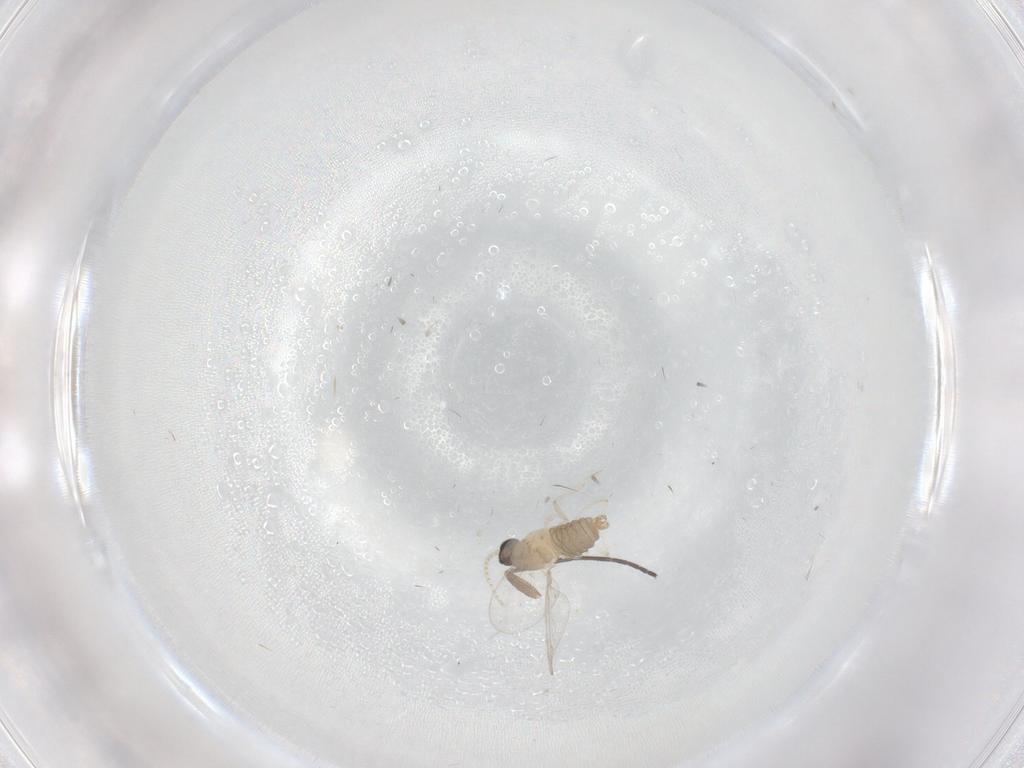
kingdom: Animalia
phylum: Arthropoda
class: Insecta
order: Diptera
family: Cecidomyiidae
